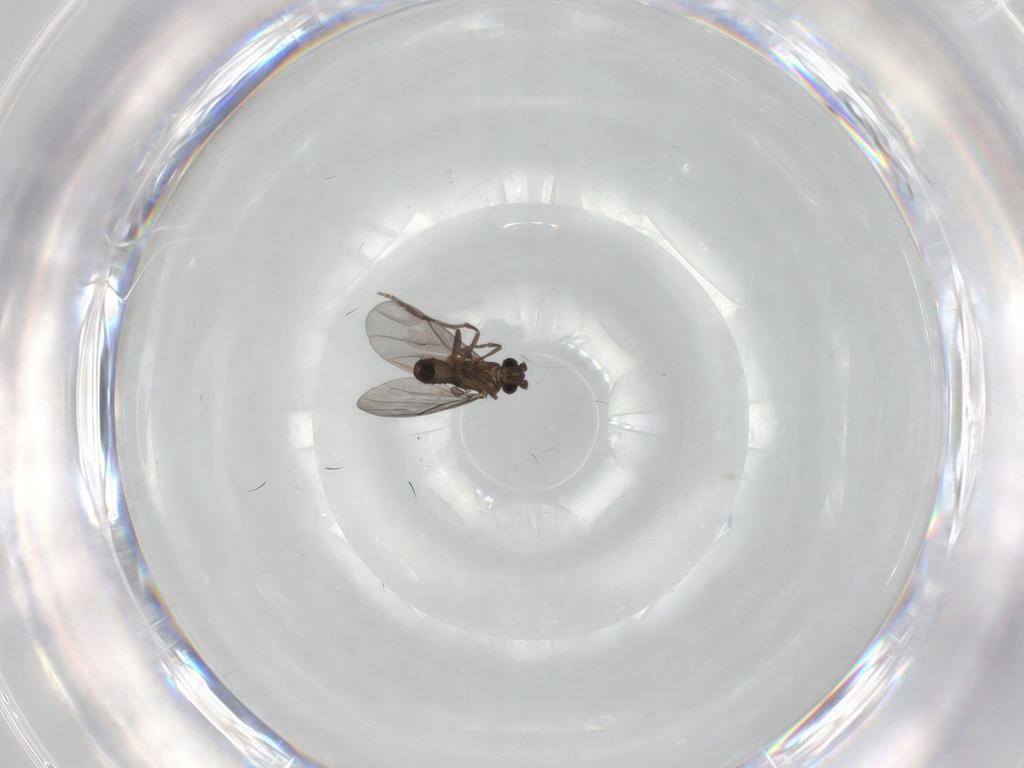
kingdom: Animalia
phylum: Arthropoda
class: Insecta
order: Diptera
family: Phoridae
